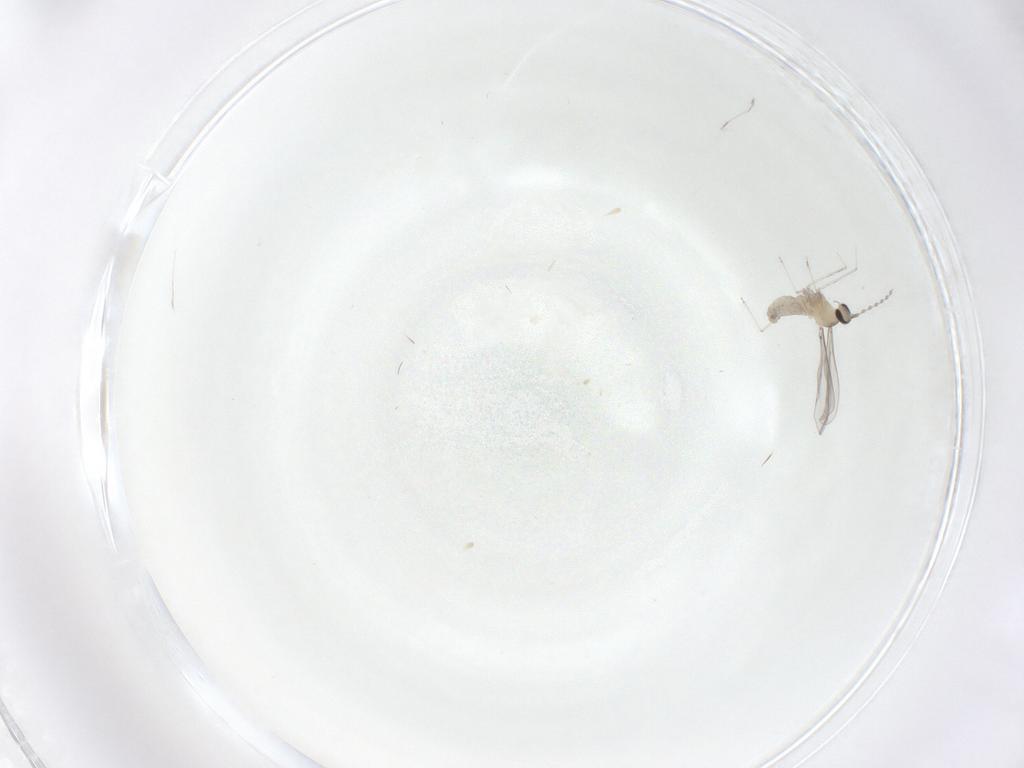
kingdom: Animalia
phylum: Arthropoda
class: Insecta
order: Diptera
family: Cecidomyiidae
